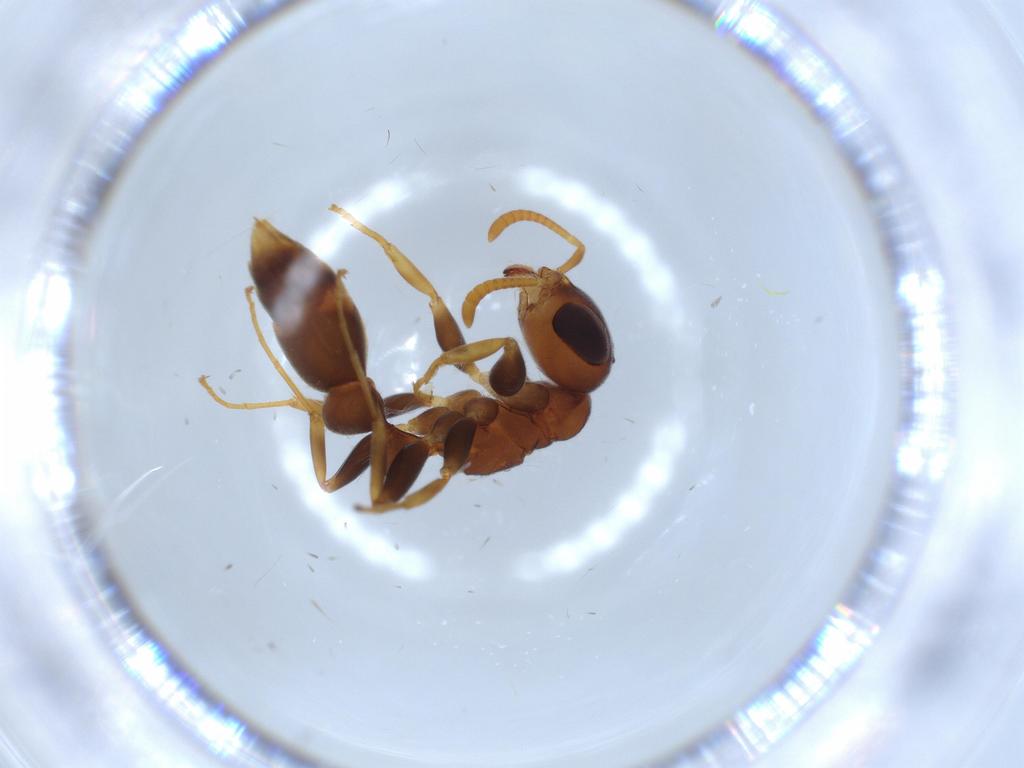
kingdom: Animalia
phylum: Arthropoda
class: Insecta
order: Hymenoptera
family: Formicidae
